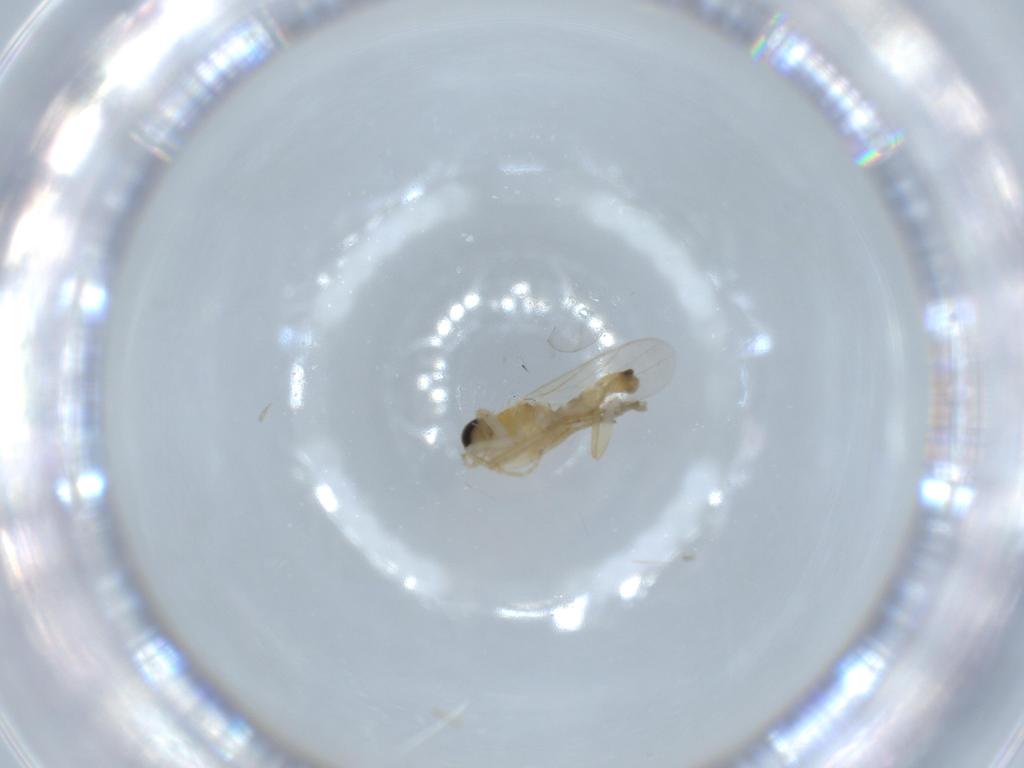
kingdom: Animalia
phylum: Arthropoda
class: Insecta
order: Diptera
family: Hybotidae
